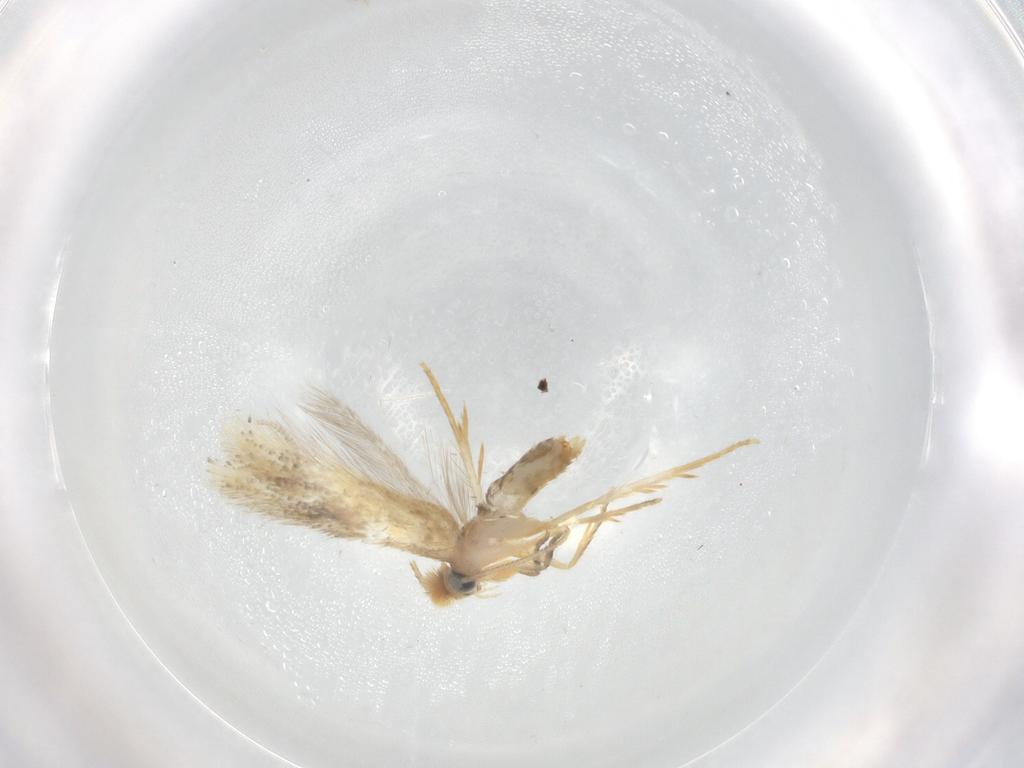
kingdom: Animalia
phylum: Arthropoda
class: Insecta
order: Lepidoptera
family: Nepticulidae
